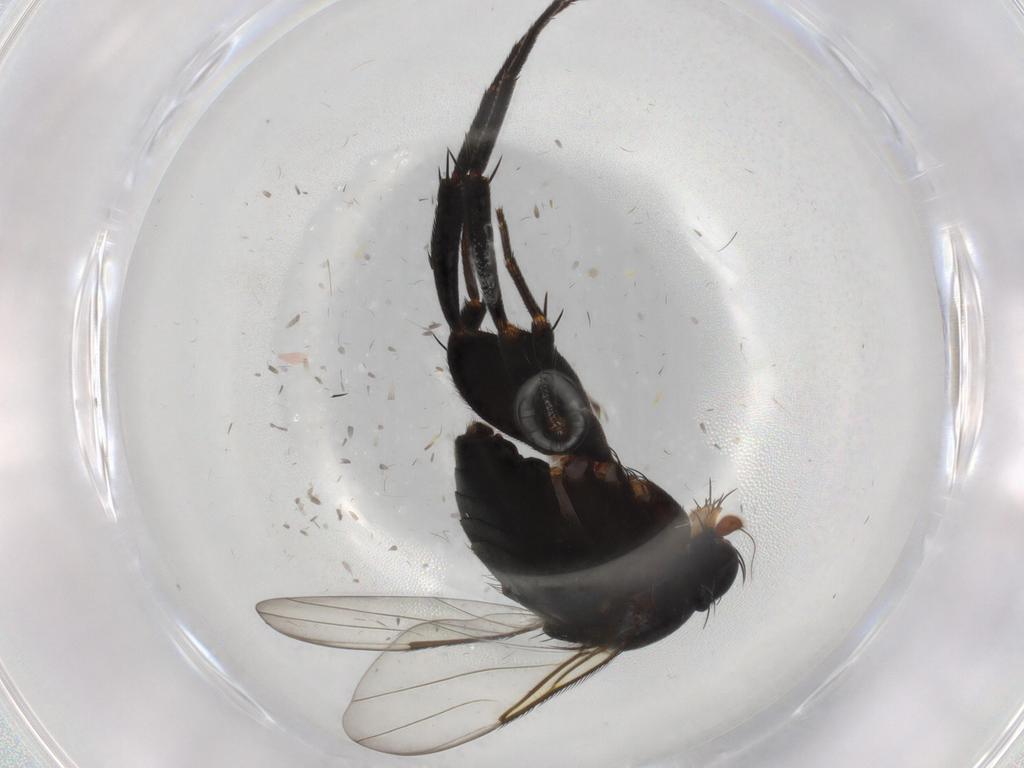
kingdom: Animalia
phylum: Arthropoda
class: Insecta
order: Diptera
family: Phoridae
